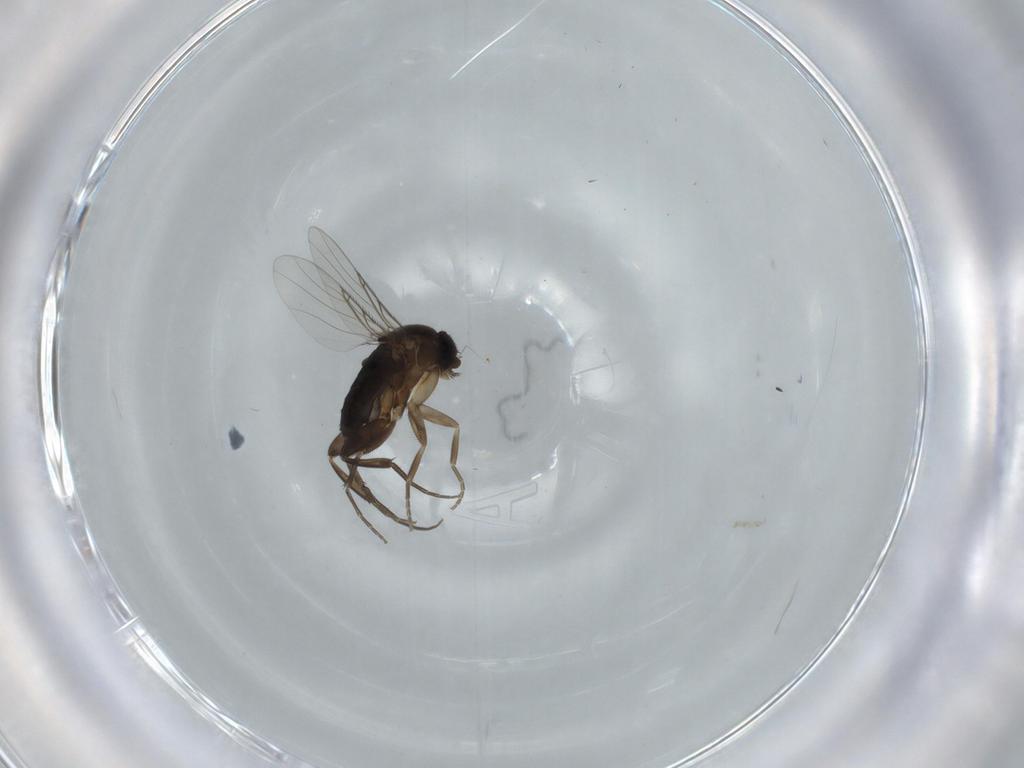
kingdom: Animalia
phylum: Arthropoda
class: Insecta
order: Diptera
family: Phoridae
